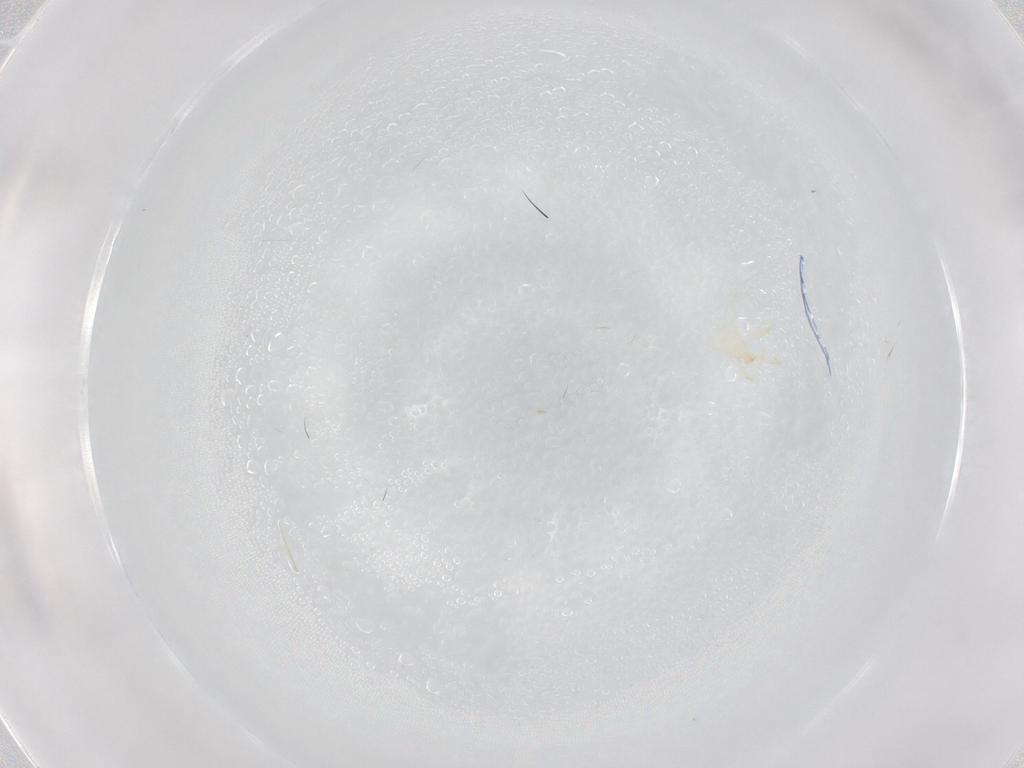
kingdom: Animalia
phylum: Arthropoda
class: Arachnida
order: Trombidiformes
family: Erythraeidae
